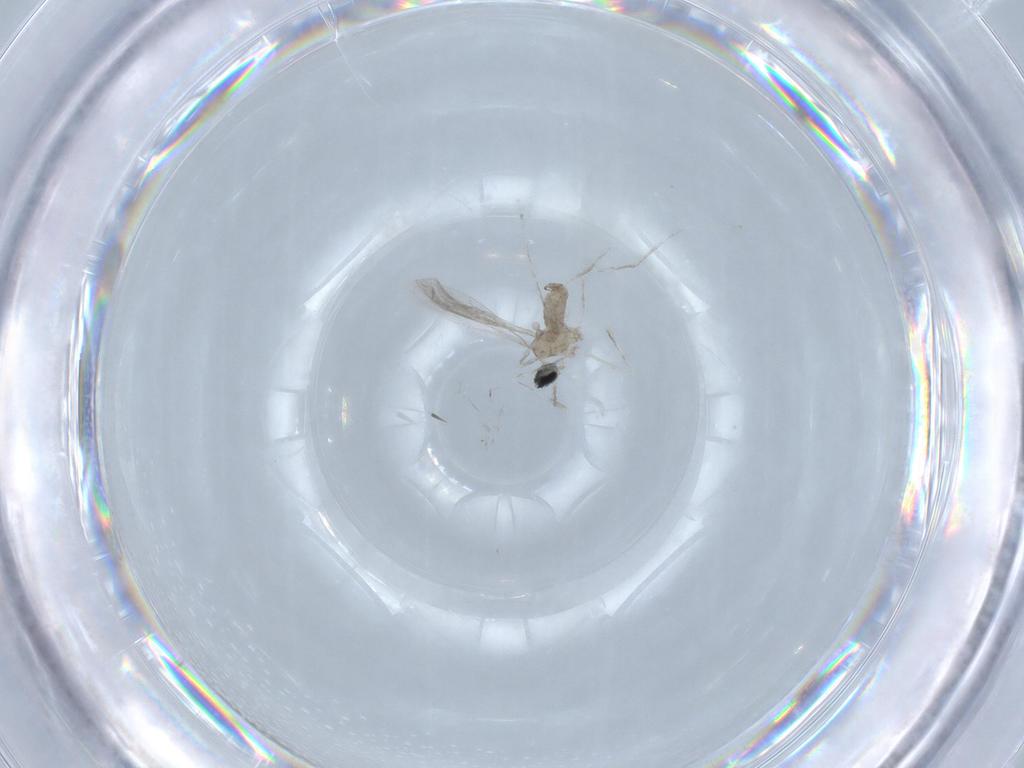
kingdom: Animalia
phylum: Arthropoda
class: Insecta
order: Diptera
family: Cecidomyiidae
